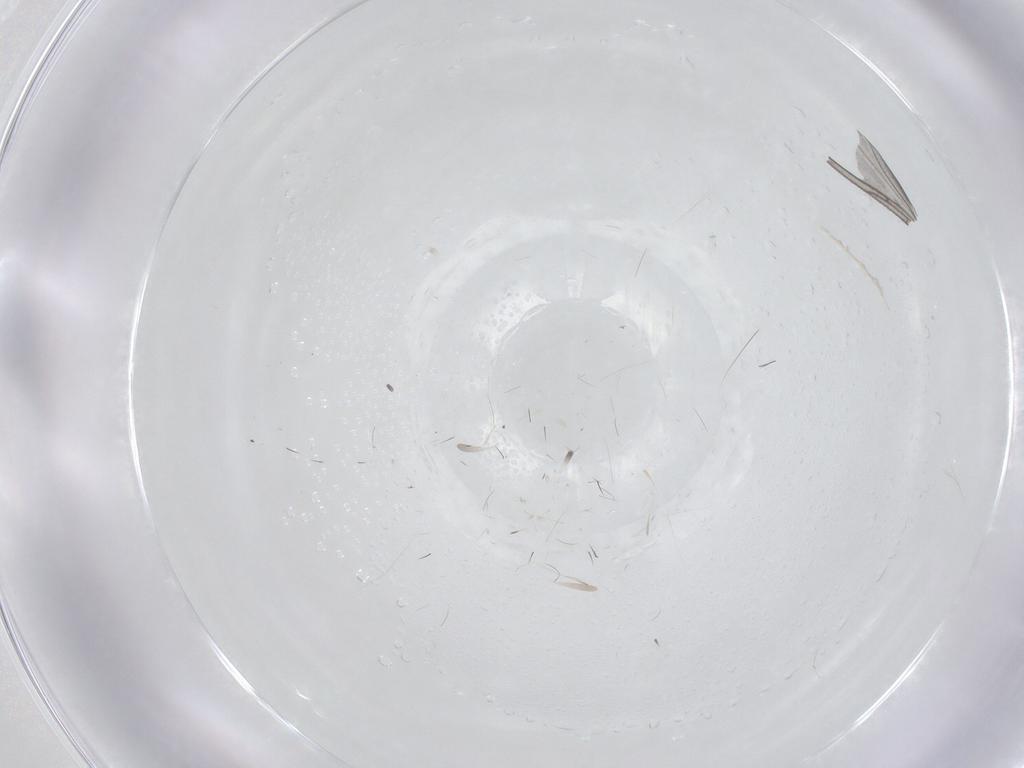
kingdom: Animalia
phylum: Arthropoda
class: Arachnida
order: Sarcoptiformes
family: Ceratozetidae
